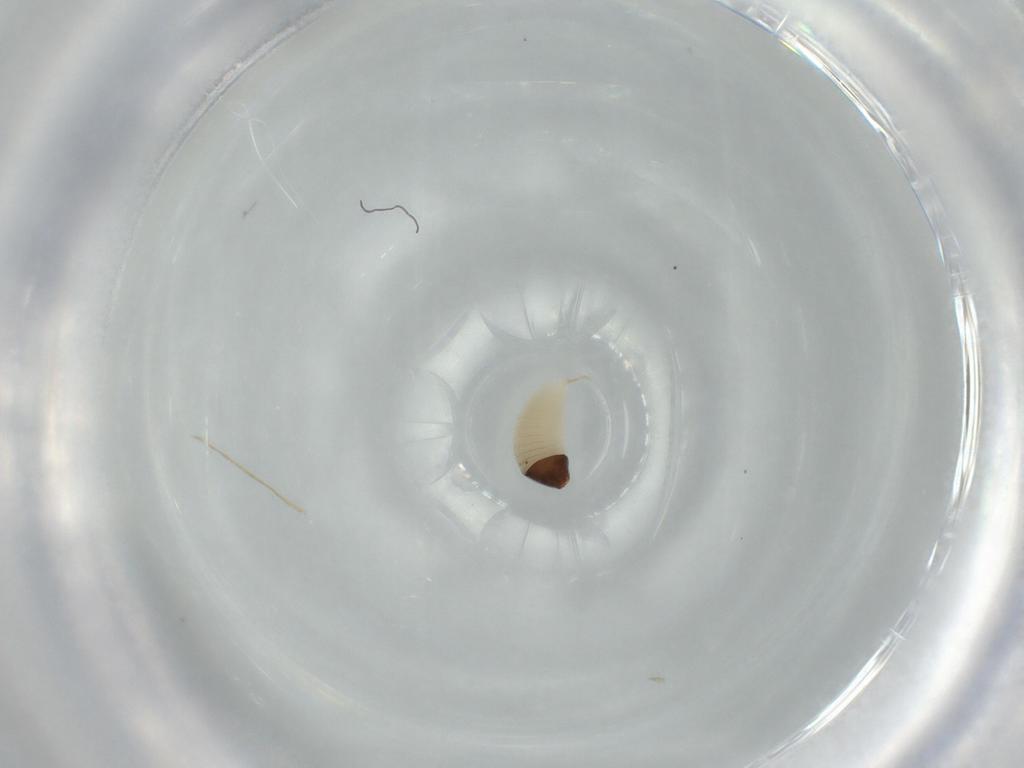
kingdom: Animalia
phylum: Arthropoda
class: Insecta
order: Hymenoptera
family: Ichneumonidae
